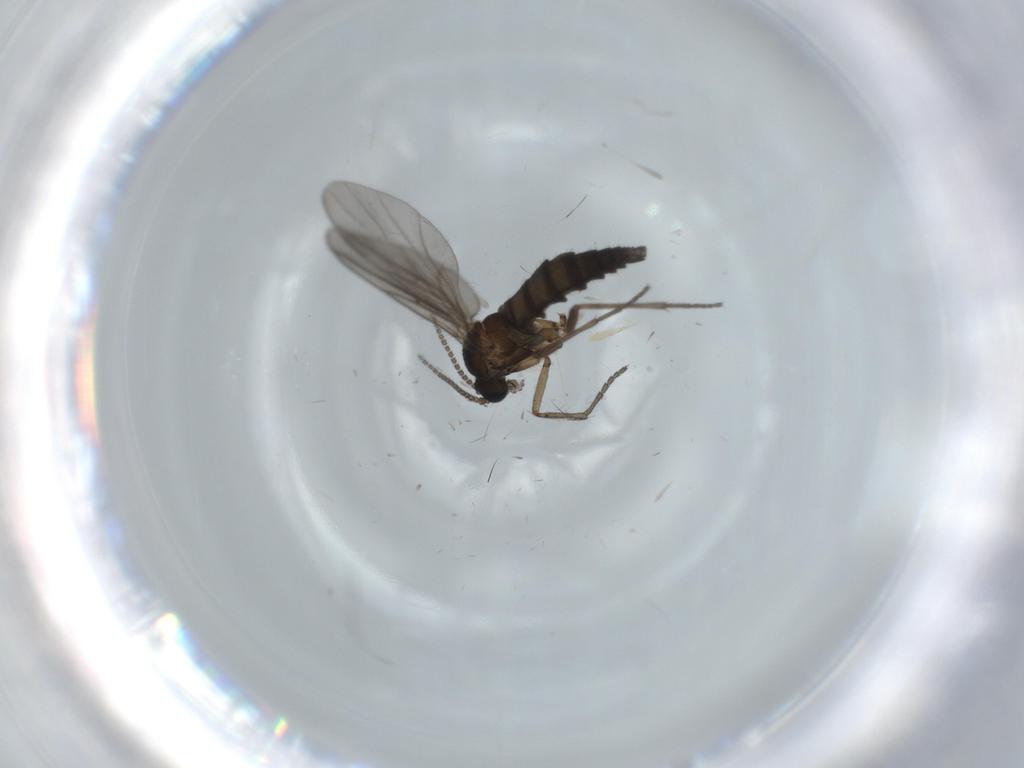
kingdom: Animalia
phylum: Arthropoda
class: Insecta
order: Diptera
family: Sciaridae
